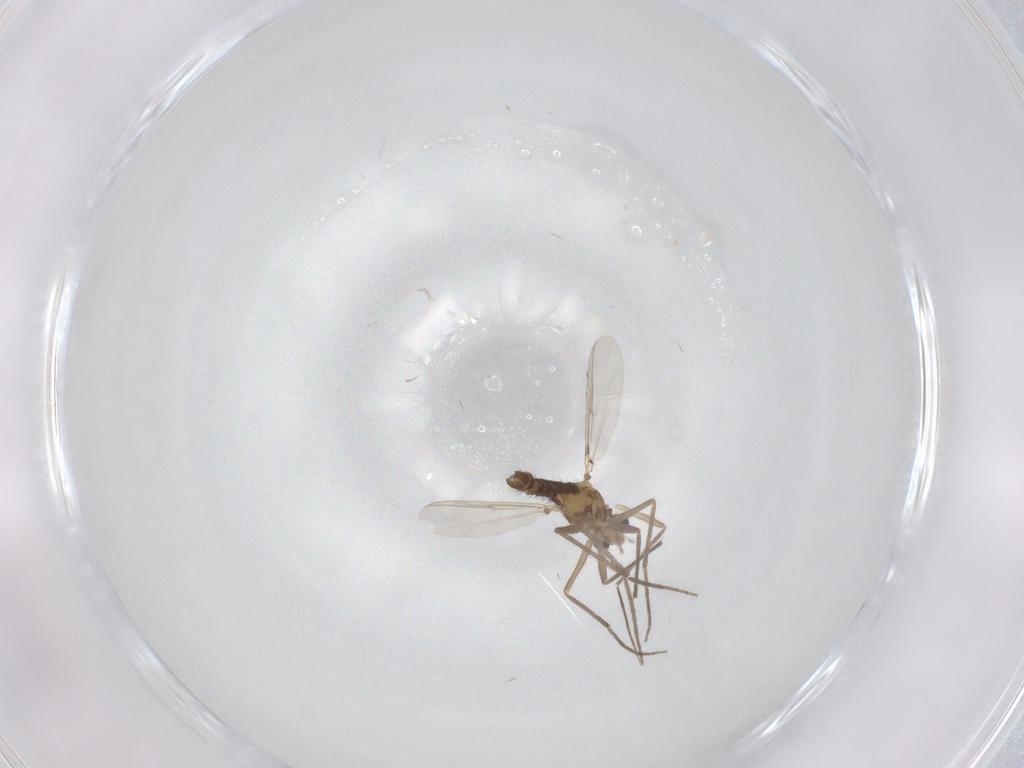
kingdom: Animalia
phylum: Arthropoda
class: Insecta
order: Diptera
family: Chironomidae
